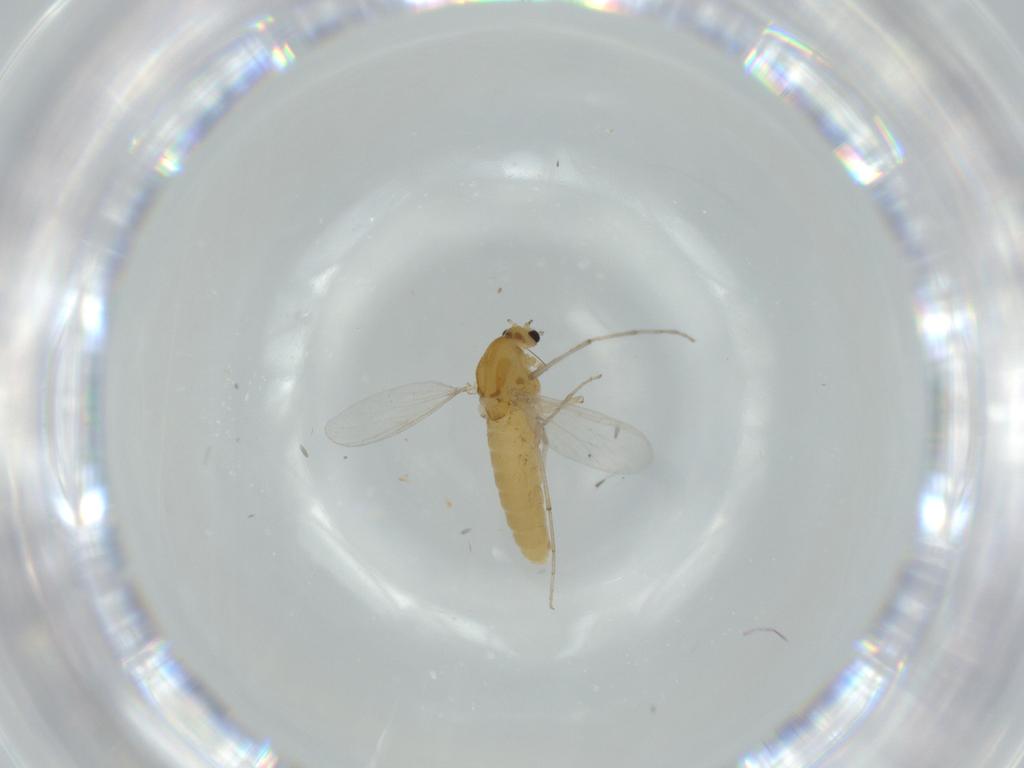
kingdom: Animalia
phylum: Arthropoda
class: Insecta
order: Diptera
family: Chironomidae
